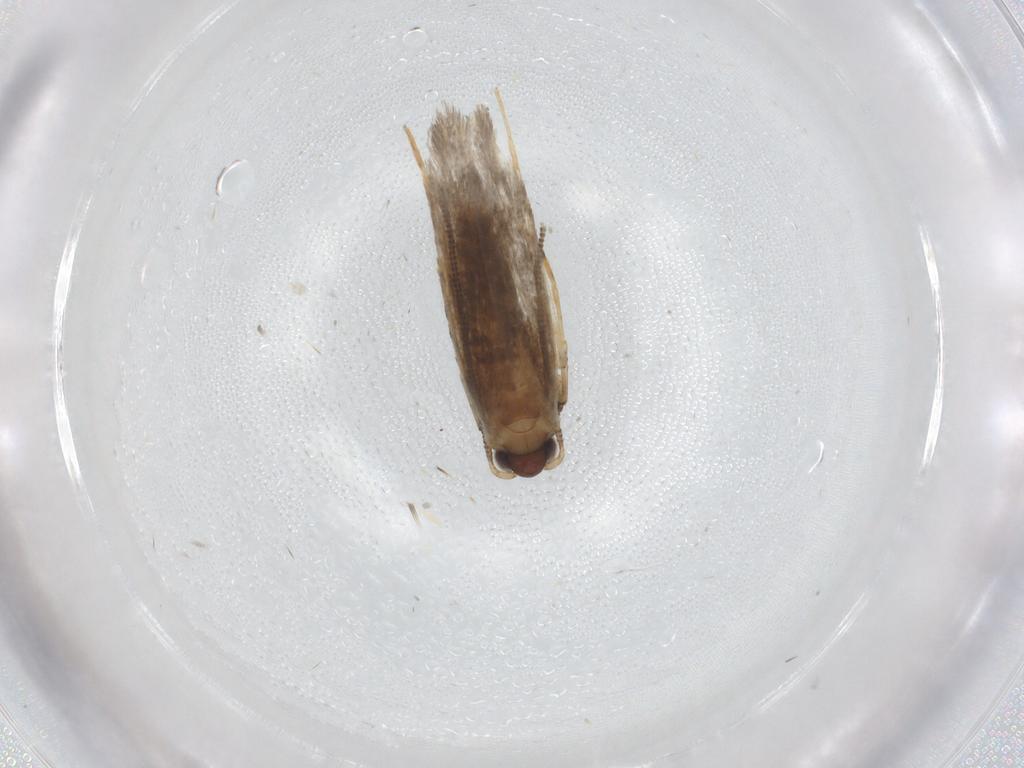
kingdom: Animalia
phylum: Arthropoda
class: Insecta
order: Lepidoptera
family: Tineidae
